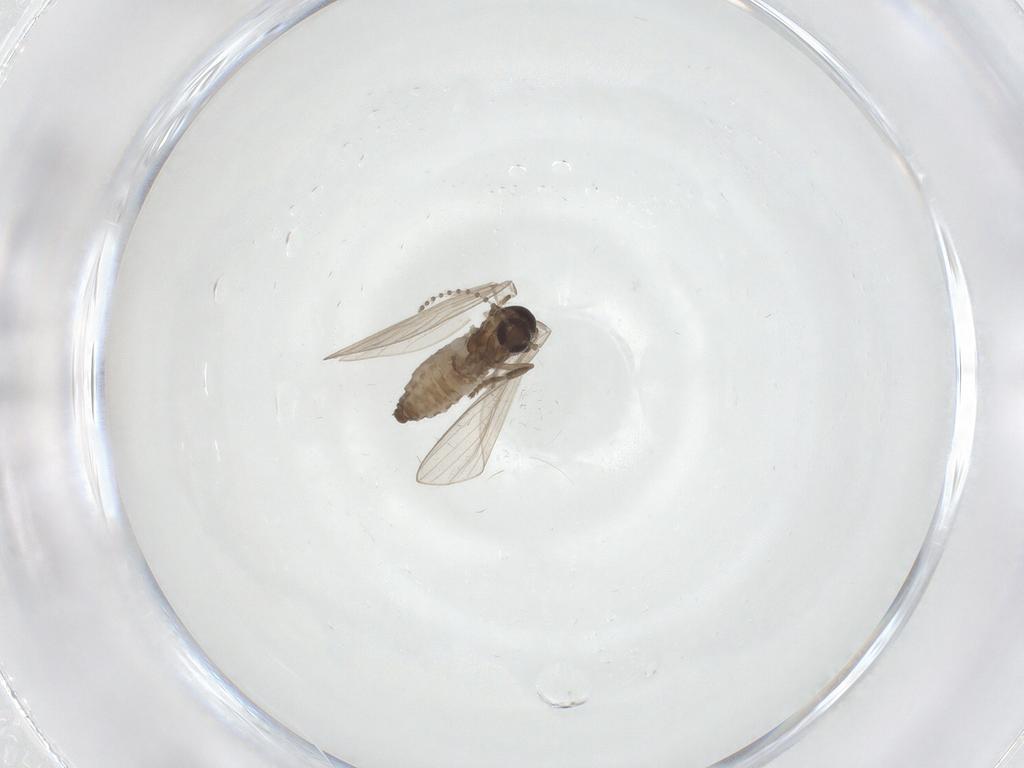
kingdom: Animalia
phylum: Arthropoda
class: Insecta
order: Diptera
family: Psychodidae
